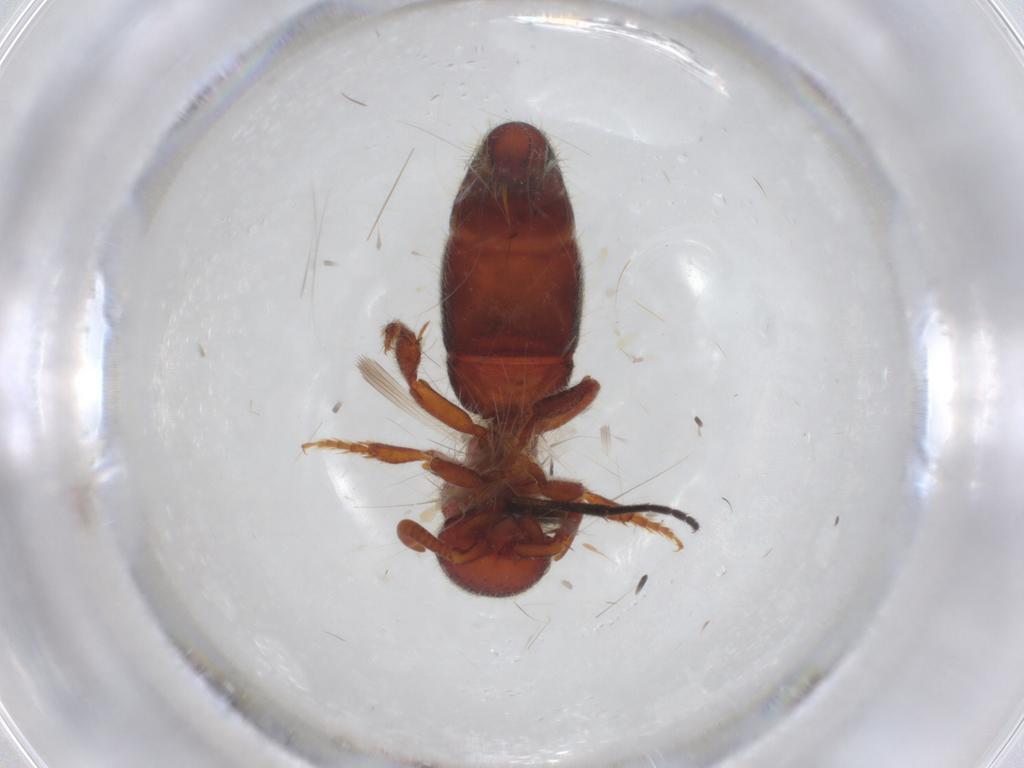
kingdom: Animalia
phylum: Arthropoda
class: Insecta
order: Hymenoptera
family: Mutillidae
